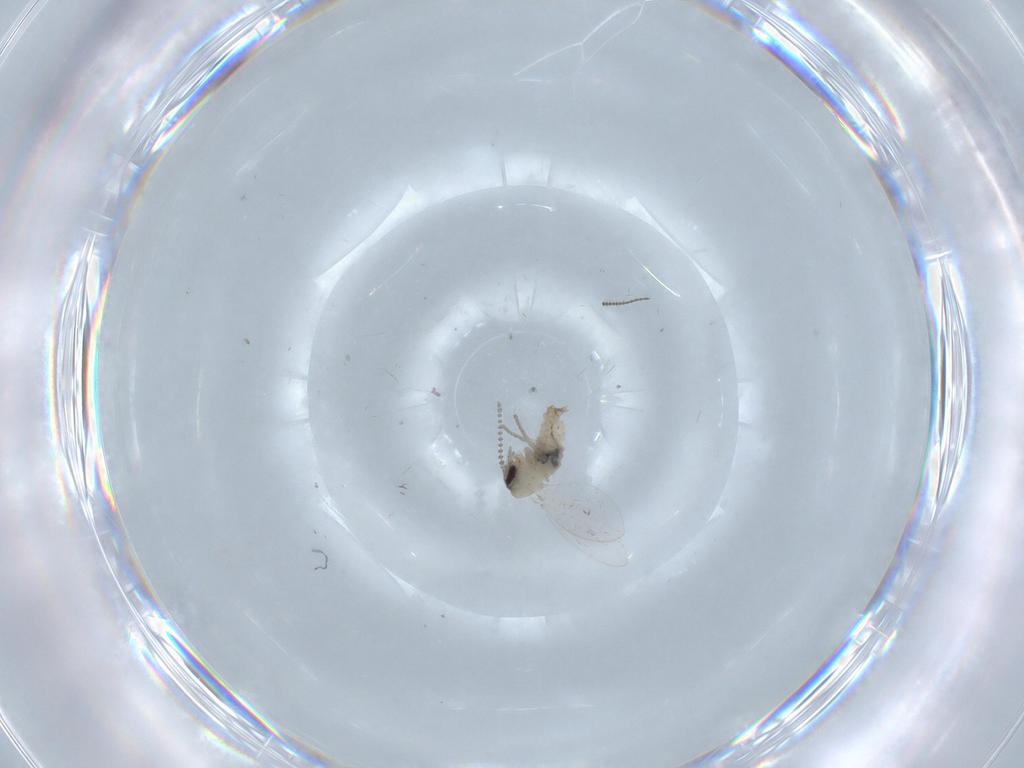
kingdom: Animalia
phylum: Arthropoda
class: Insecta
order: Diptera
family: Psychodidae
